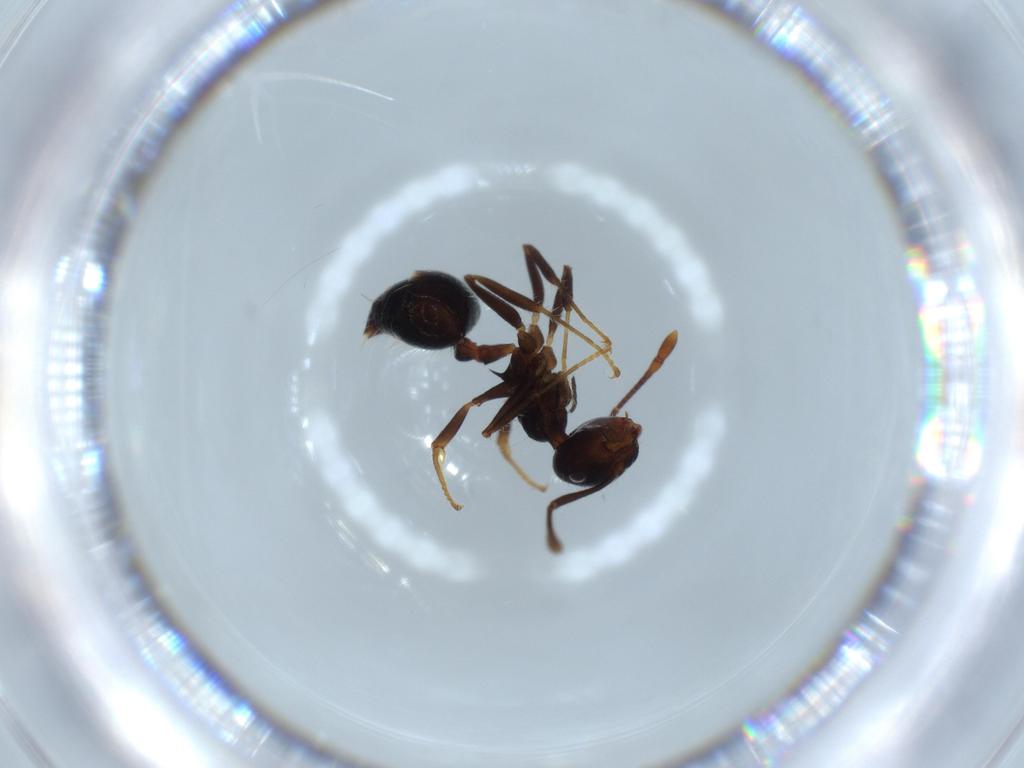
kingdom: Animalia
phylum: Arthropoda
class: Insecta
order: Hymenoptera
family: Formicidae
